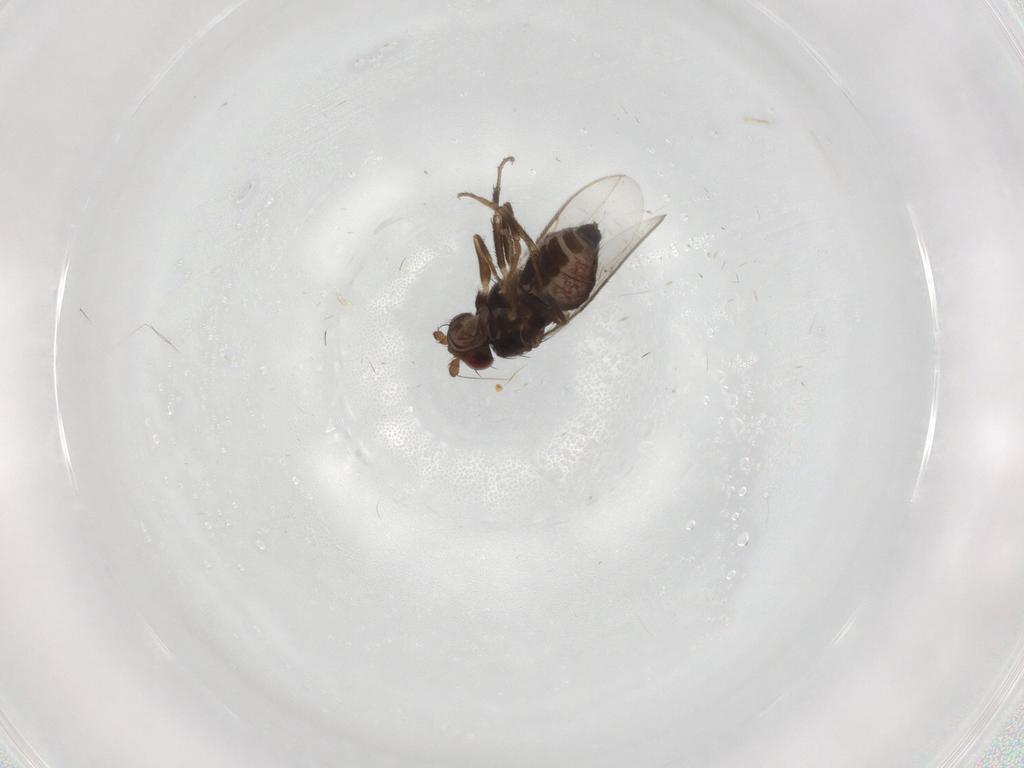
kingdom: Animalia
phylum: Arthropoda
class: Insecta
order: Diptera
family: Sphaeroceridae
